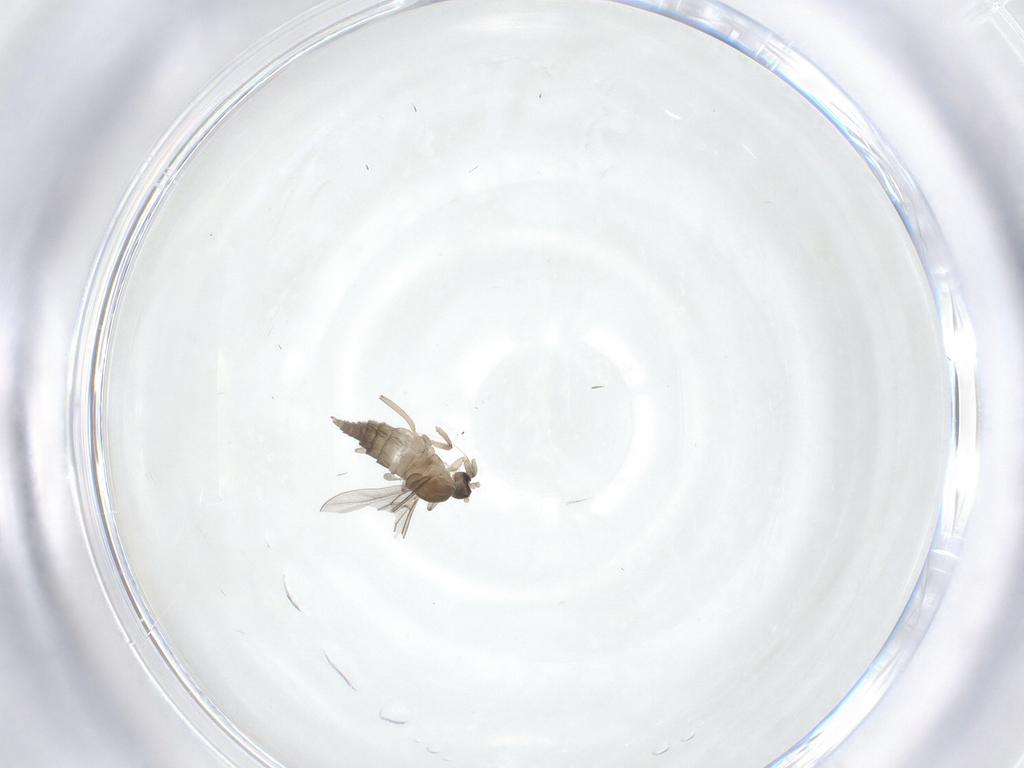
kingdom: Animalia
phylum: Arthropoda
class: Insecta
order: Diptera
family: Cecidomyiidae
